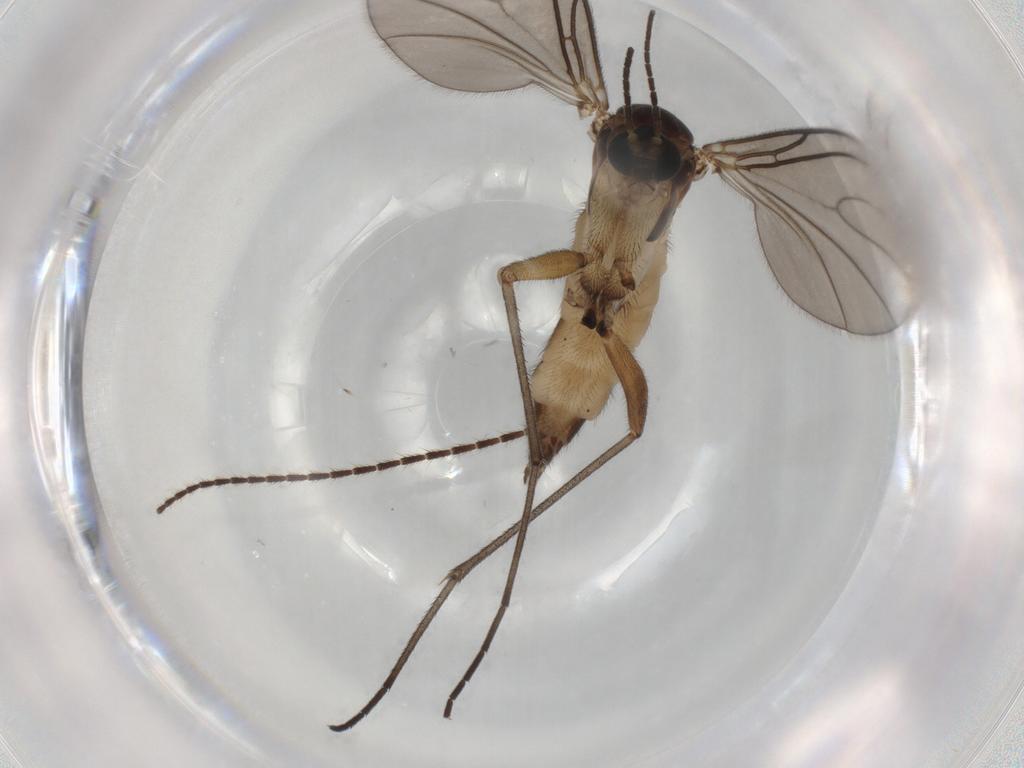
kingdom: Animalia
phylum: Arthropoda
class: Insecta
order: Diptera
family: Sciaridae
